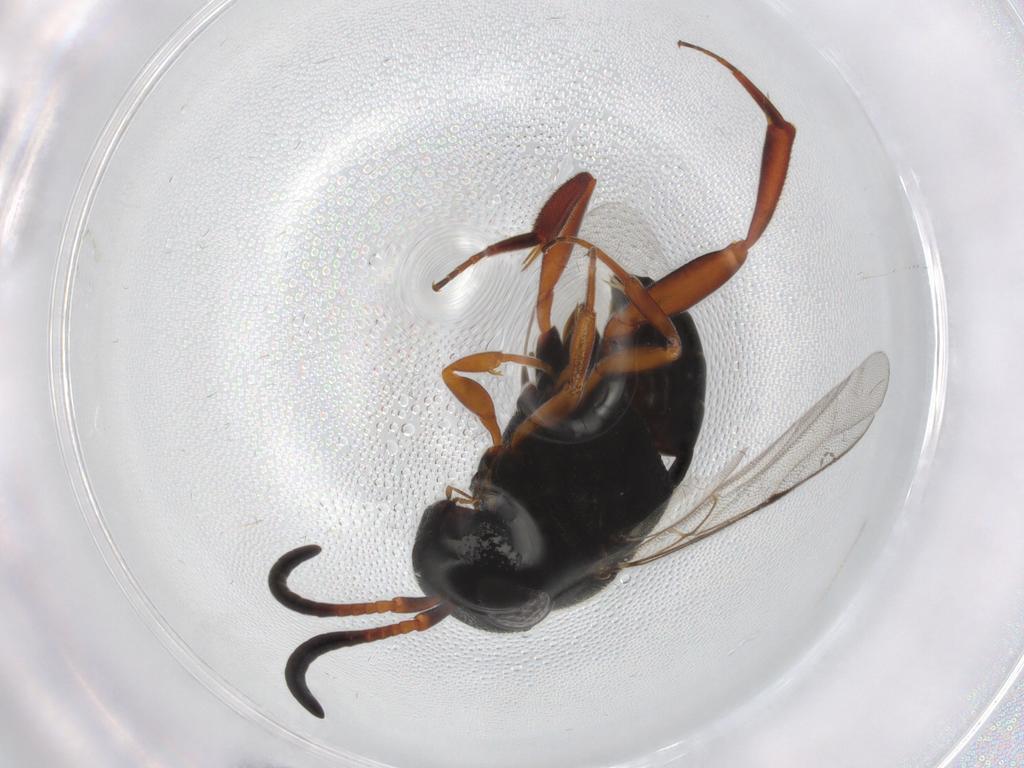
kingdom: Animalia
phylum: Arthropoda
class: Insecta
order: Hymenoptera
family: Evaniidae
